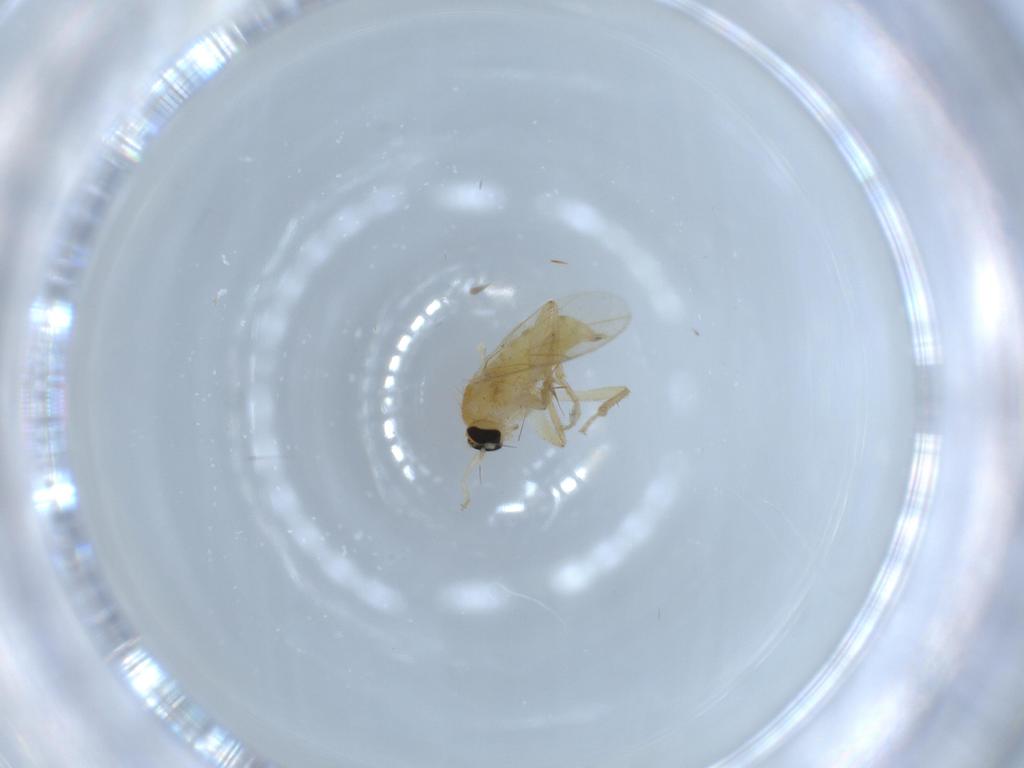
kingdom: Animalia
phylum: Arthropoda
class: Insecta
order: Diptera
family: Hybotidae
